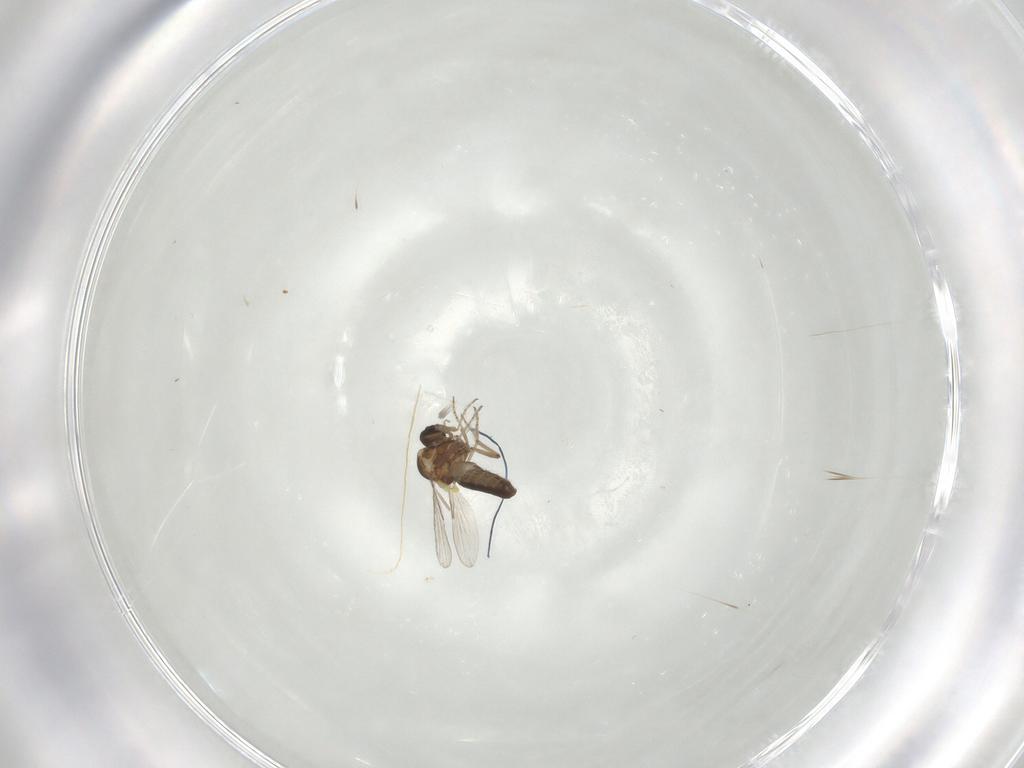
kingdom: Animalia
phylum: Arthropoda
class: Insecta
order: Diptera
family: Ceratopogonidae
